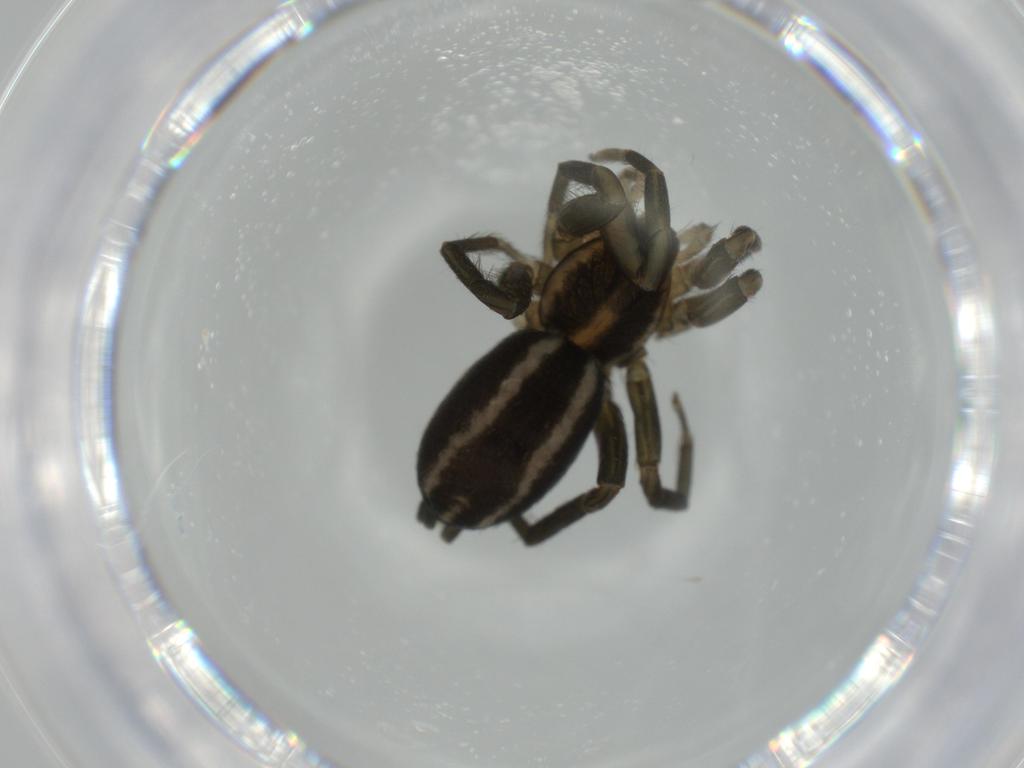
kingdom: Animalia
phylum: Arthropoda
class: Arachnida
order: Araneae
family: Gnaphosidae
